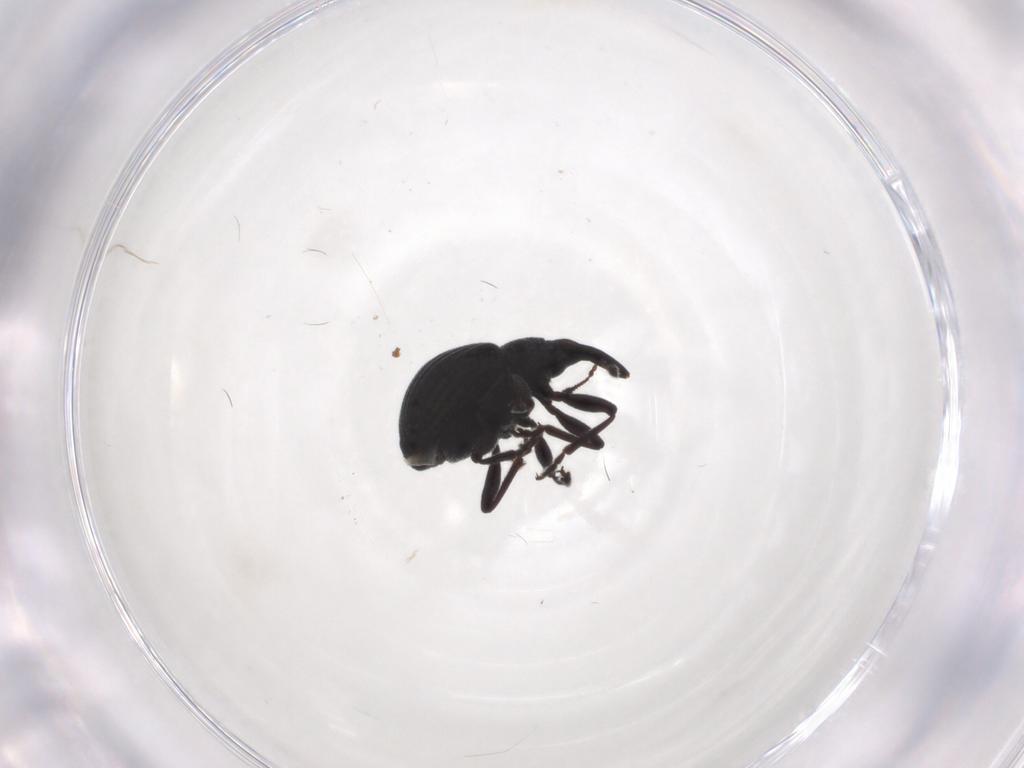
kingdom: Animalia
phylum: Arthropoda
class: Insecta
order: Coleoptera
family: Brentidae
